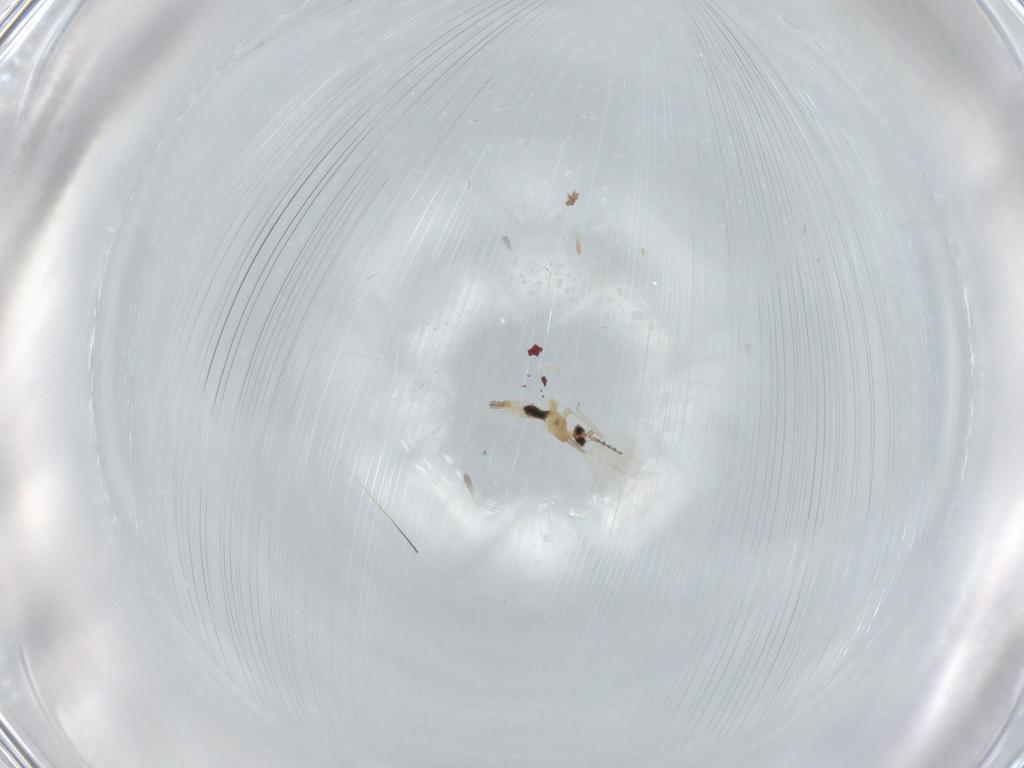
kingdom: Animalia
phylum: Arthropoda
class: Insecta
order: Diptera
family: Cecidomyiidae
